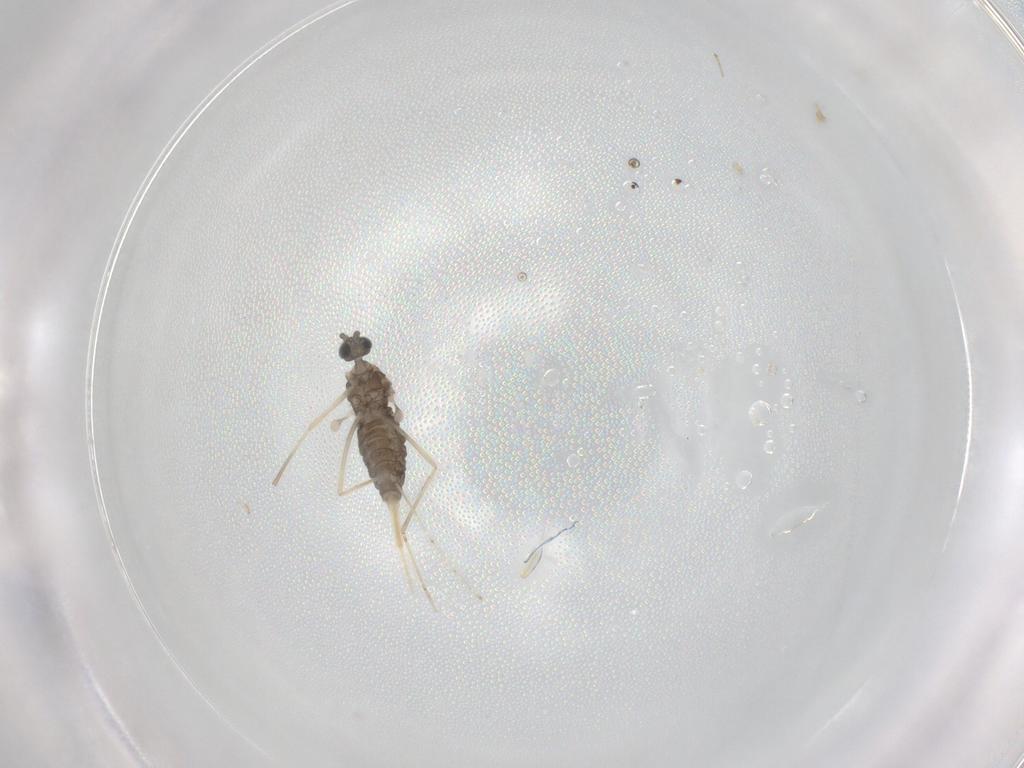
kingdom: Animalia
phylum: Arthropoda
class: Insecta
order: Diptera
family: Cecidomyiidae
